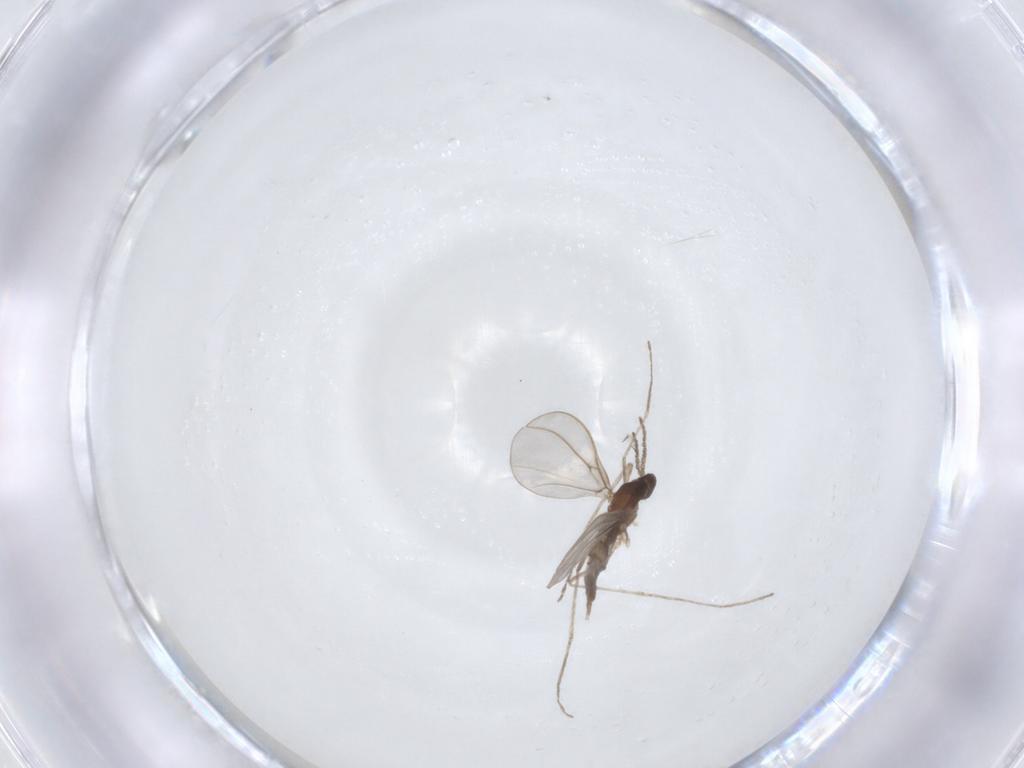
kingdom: Animalia
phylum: Arthropoda
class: Insecta
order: Diptera
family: Cecidomyiidae
